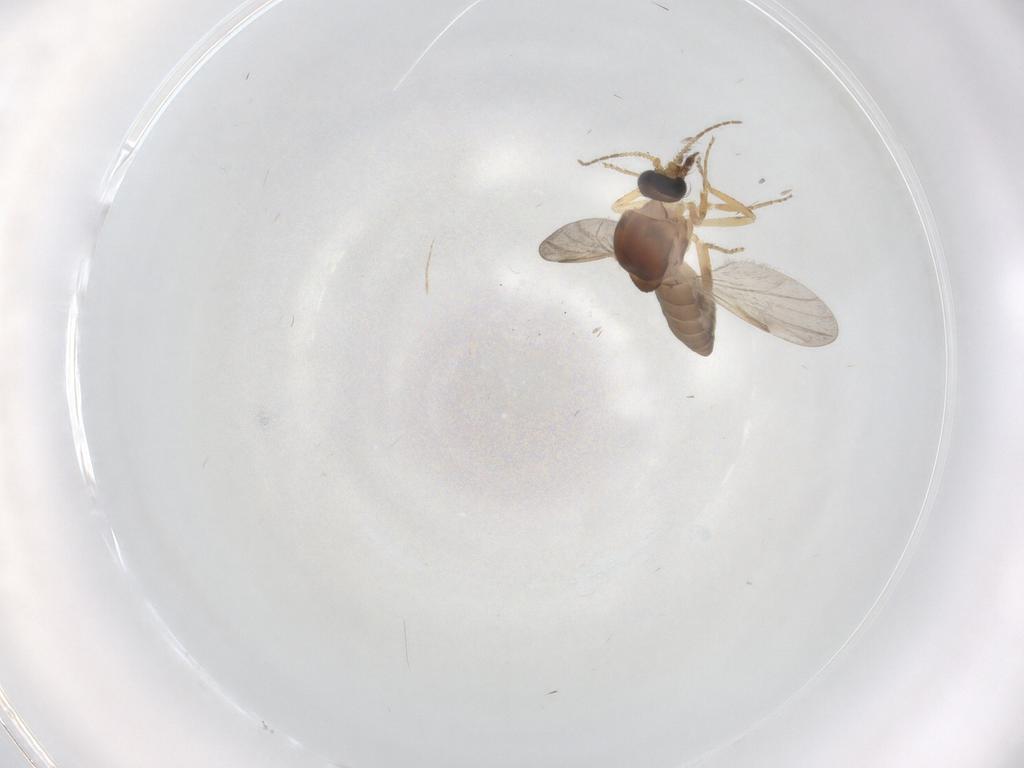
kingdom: Animalia
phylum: Arthropoda
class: Insecta
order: Diptera
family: Ceratopogonidae
